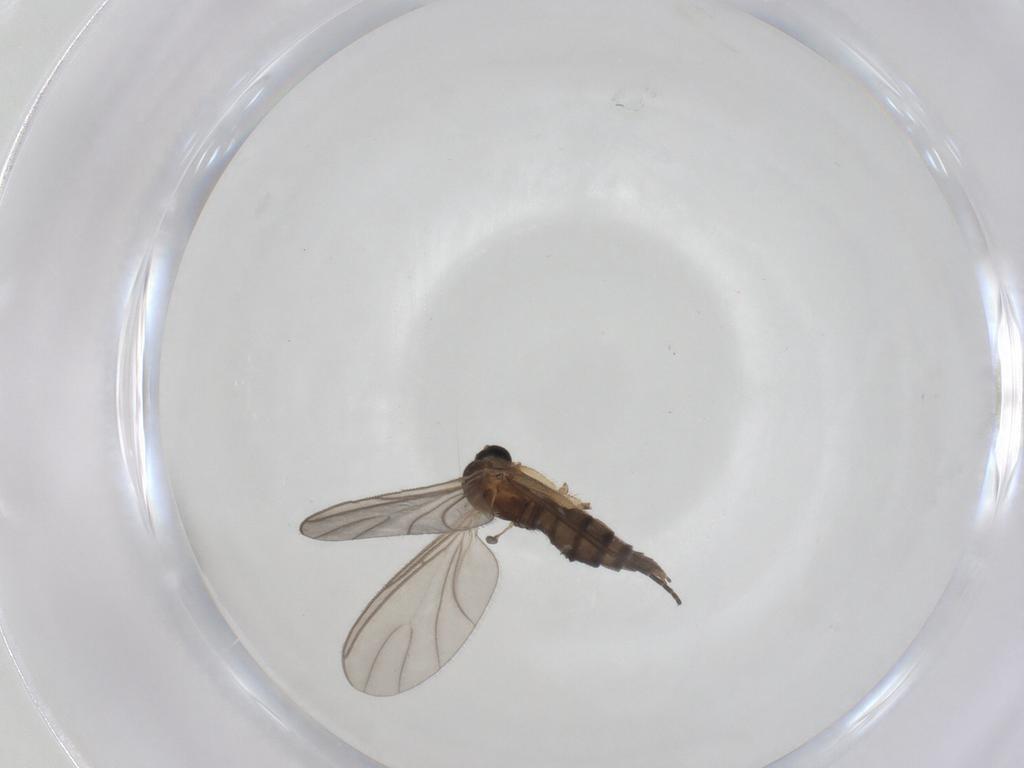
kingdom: Animalia
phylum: Arthropoda
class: Insecta
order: Diptera
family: Sciaridae
